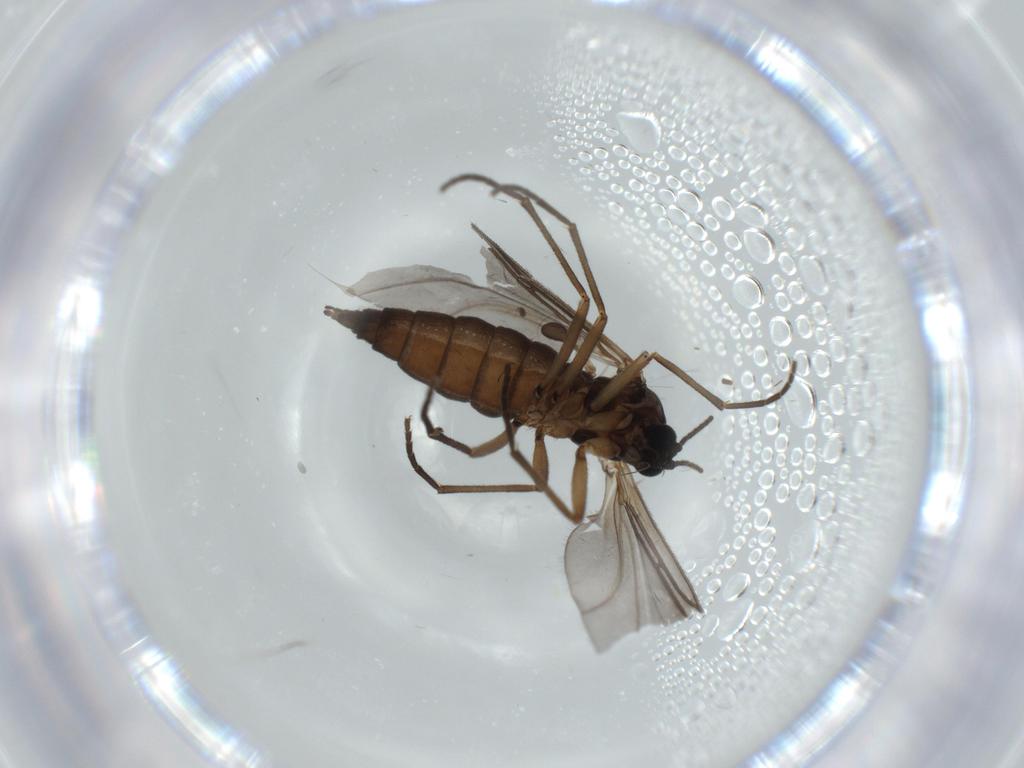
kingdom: Animalia
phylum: Arthropoda
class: Insecta
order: Diptera
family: Sciaridae
